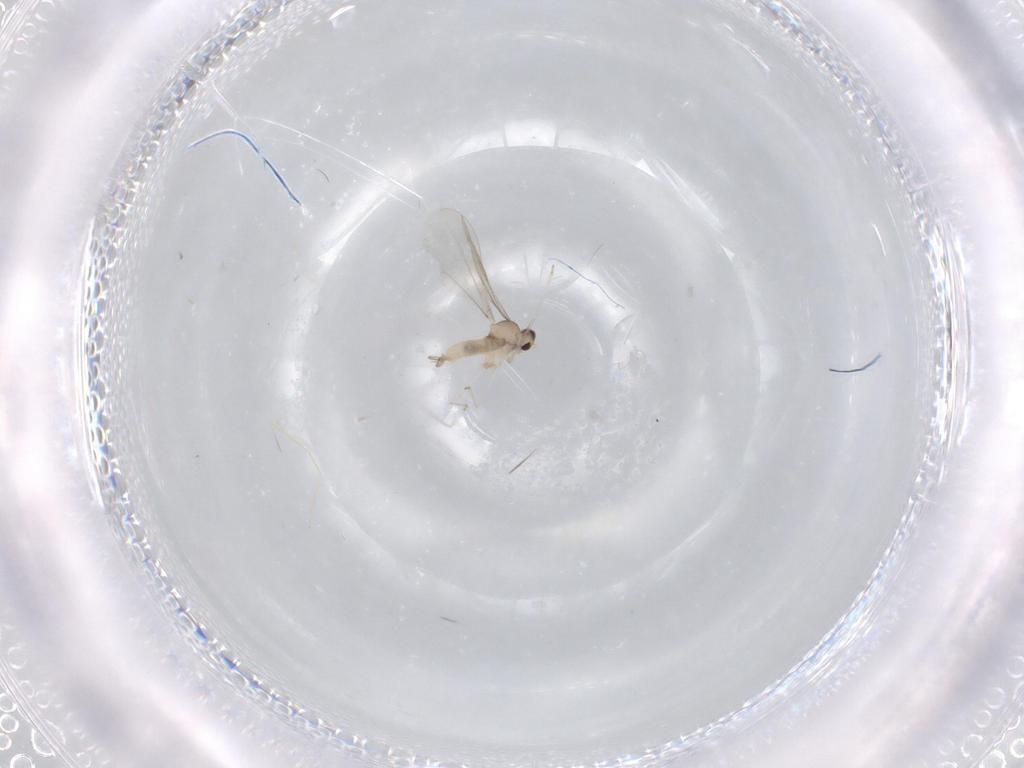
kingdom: Animalia
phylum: Arthropoda
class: Insecta
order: Diptera
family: Cecidomyiidae
